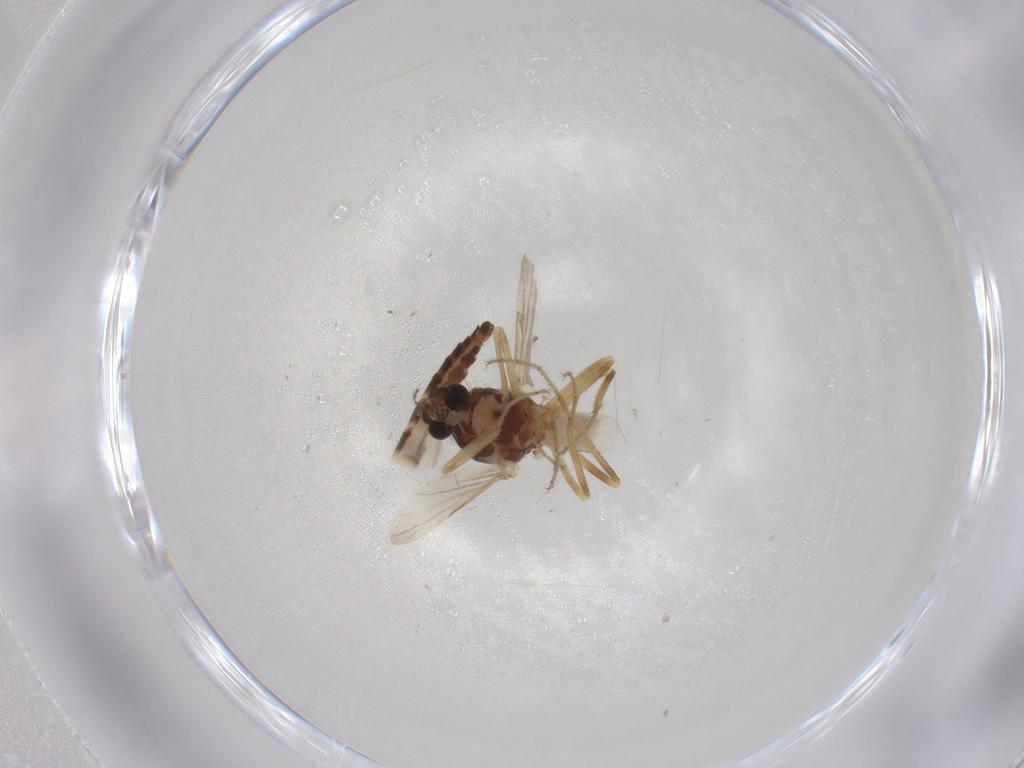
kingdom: Animalia
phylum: Arthropoda
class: Insecta
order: Diptera
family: Ceratopogonidae
